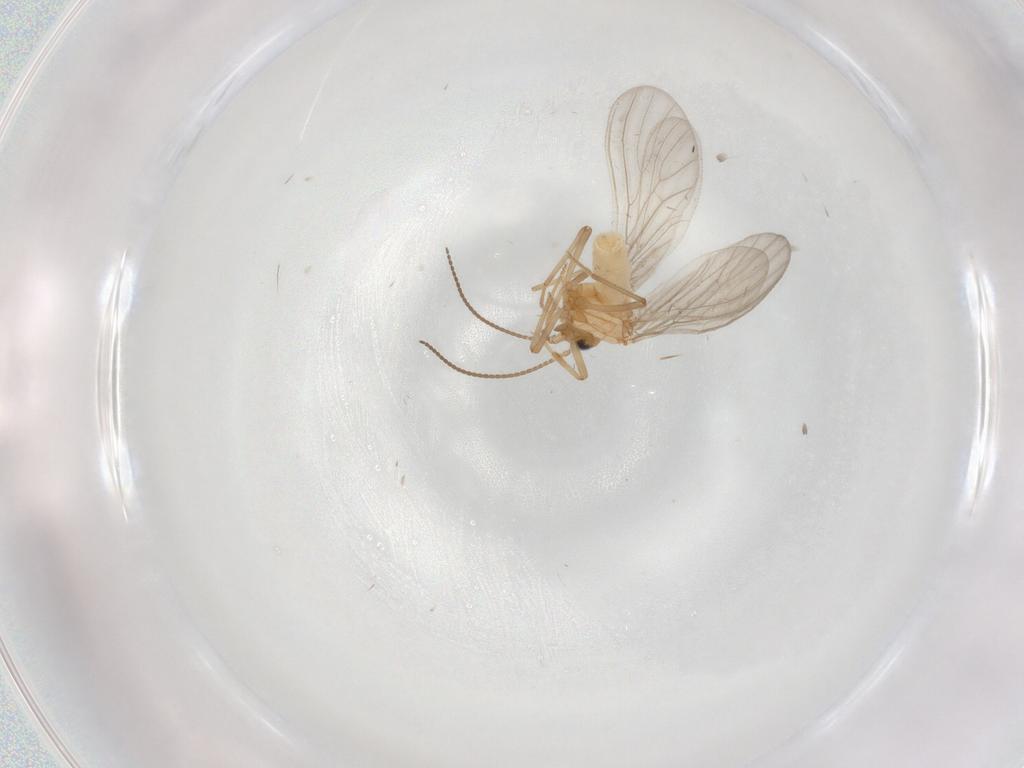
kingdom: Animalia
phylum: Arthropoda
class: Insecta
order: Neuroptera
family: Coniopterygidae
